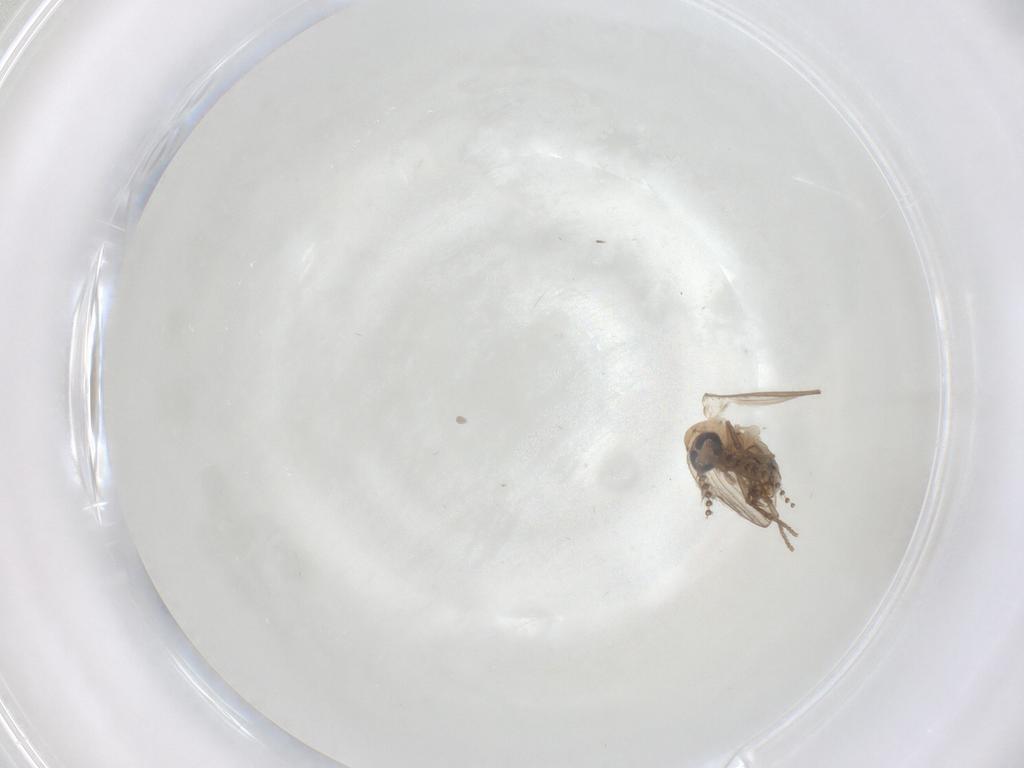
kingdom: Animalia
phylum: Arthropoda
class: Insecta
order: Diptera
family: Psychodidae
